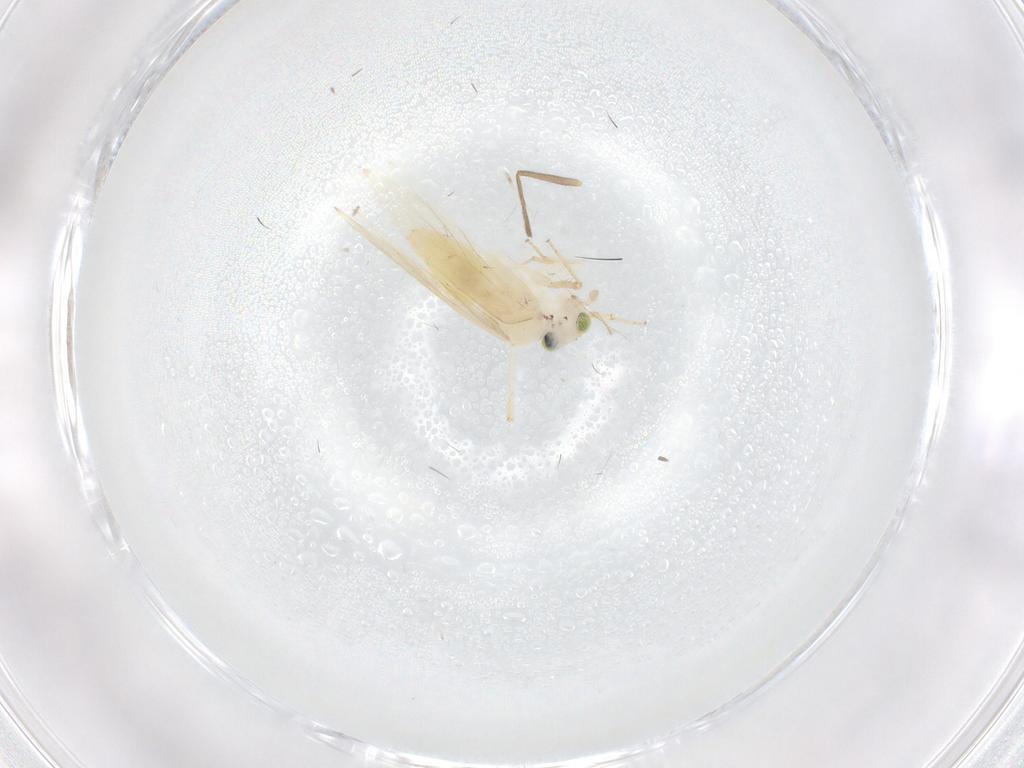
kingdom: Animalia
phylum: Arthropoda
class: Insecta
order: Psocodea
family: Lepidopsocidae
